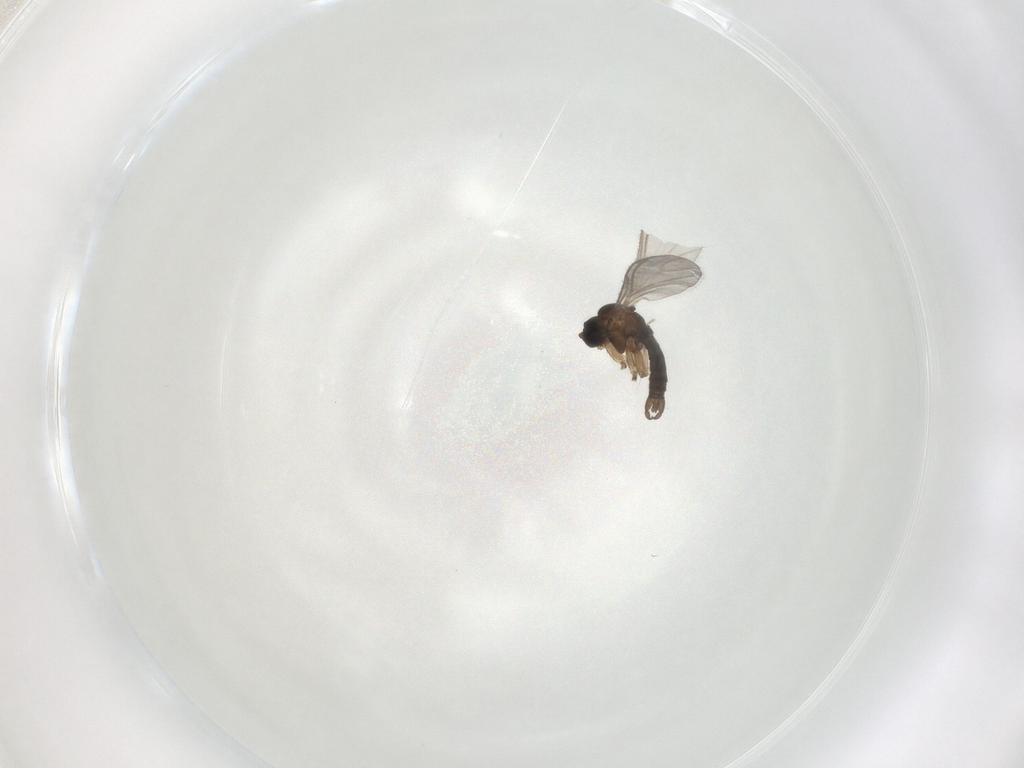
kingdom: Animalia
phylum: Arthropoda
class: Insecta
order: Diptera
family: Sciaridae
